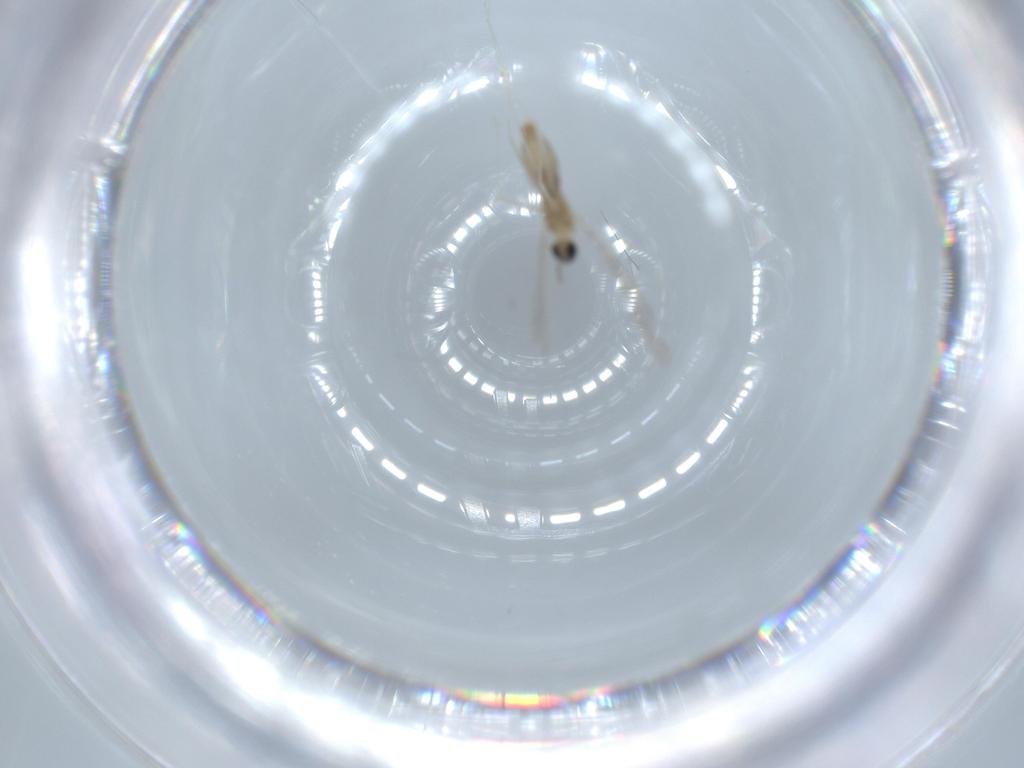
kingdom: Animalia
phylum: Arthropoda
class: Insecta
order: Diptera
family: Cecidomyiidae
